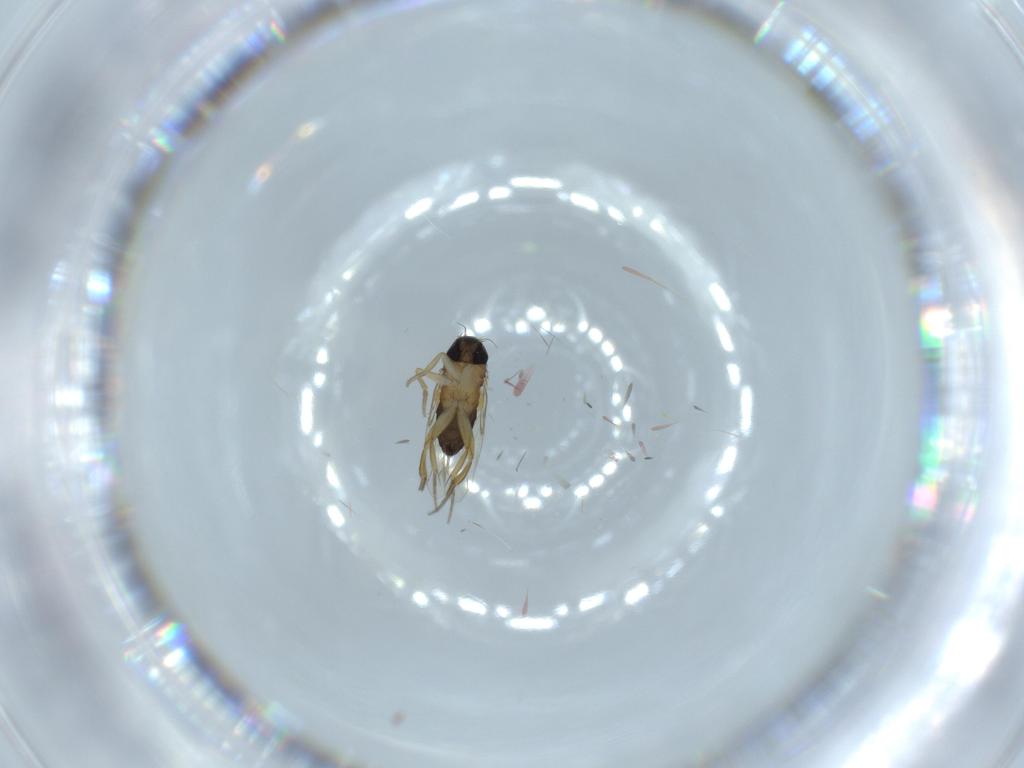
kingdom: Animalia
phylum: Arthropoda
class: Insecta
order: Diptera
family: Phoridae
